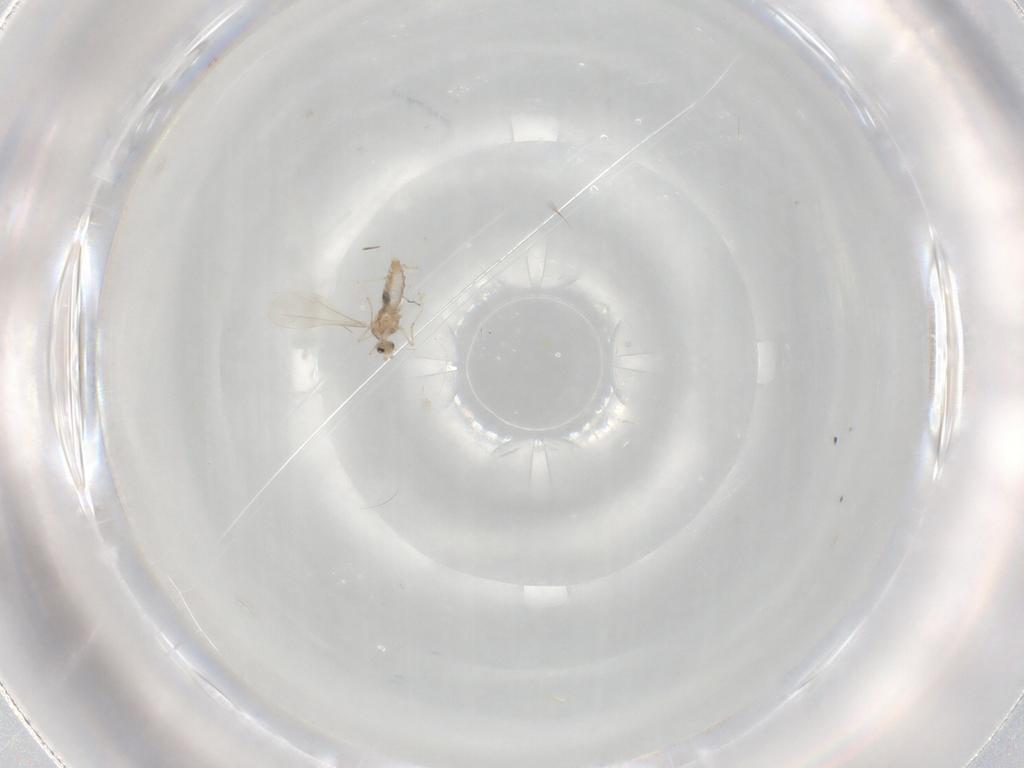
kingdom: Animalia
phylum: Arthropoda
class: Insecta
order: Diptera
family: Cecidomyiidae
